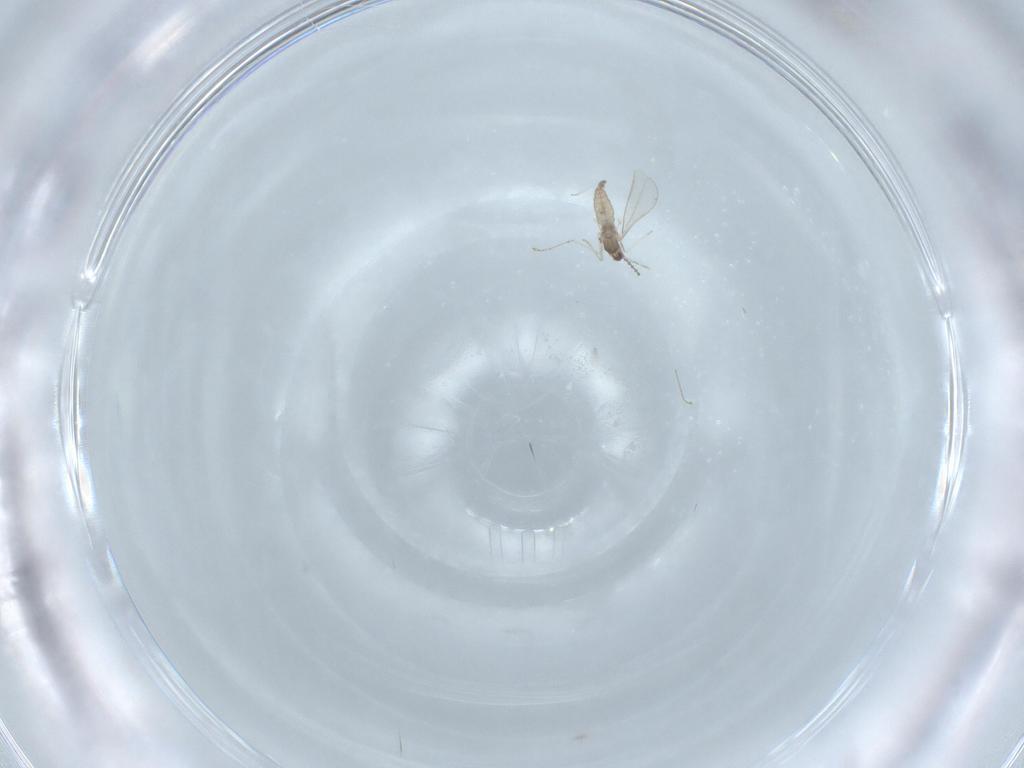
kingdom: Animalia
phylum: Arthropoda
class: Insecta
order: Diptera
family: Cecidomyiidae
